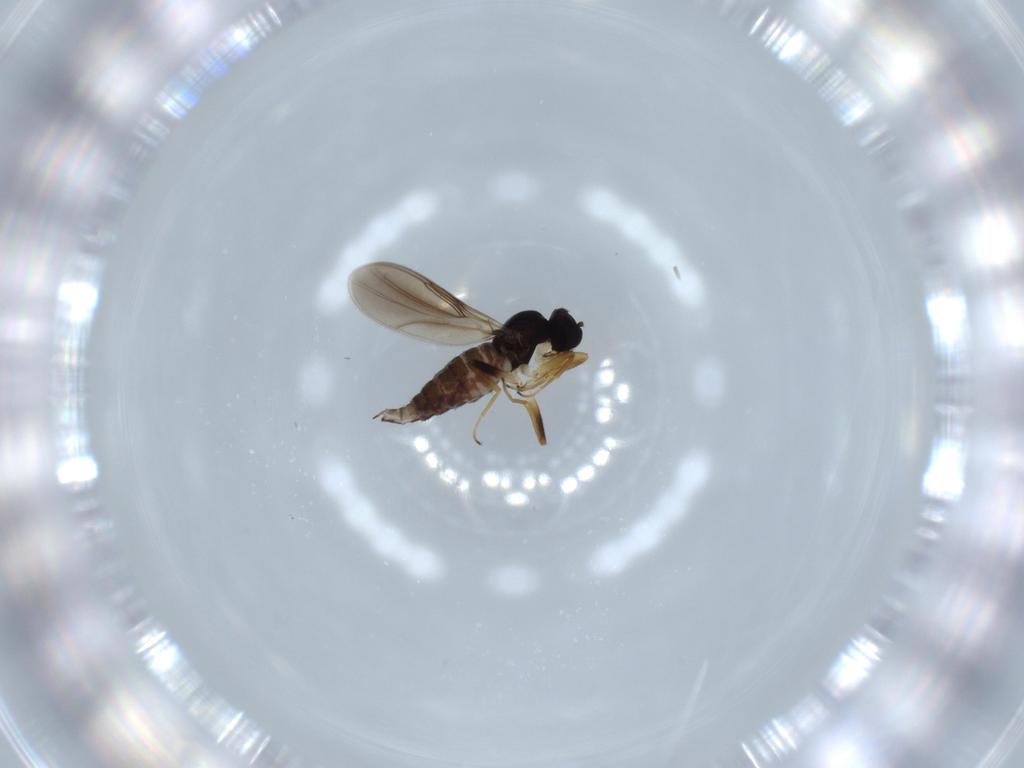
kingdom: Animalia
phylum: Arthropoda
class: Insecta
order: Diptera
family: Hybotidae
